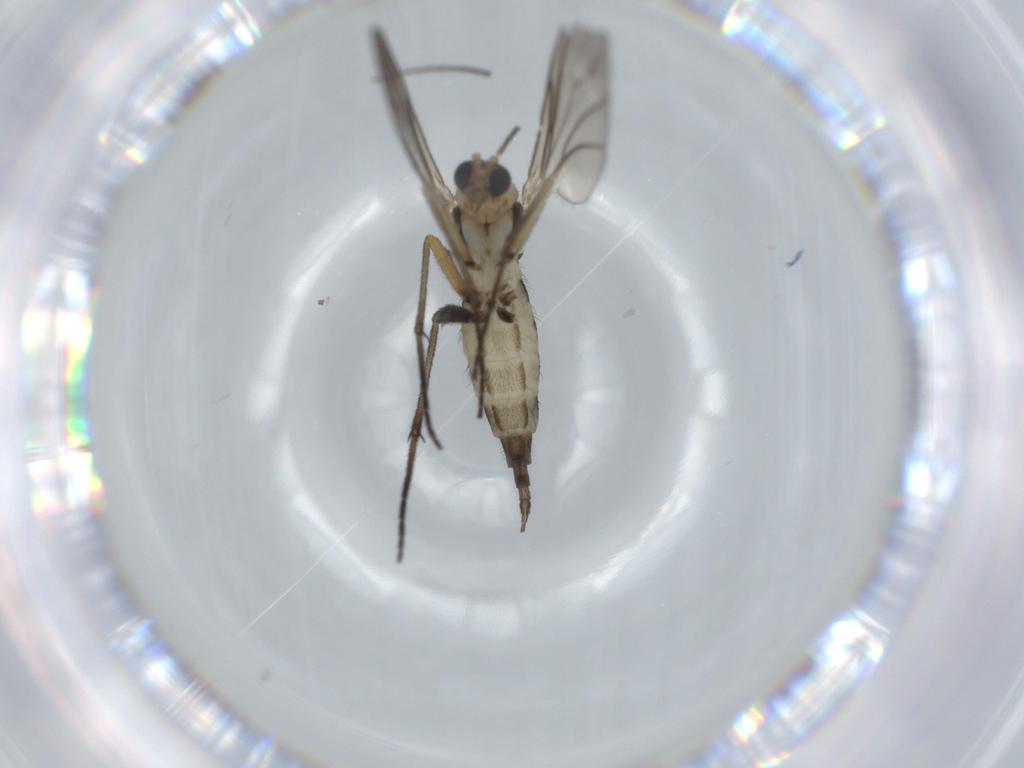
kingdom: Animalia
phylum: Arthropoda
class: Insecta
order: Diptera
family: Sciaridae
